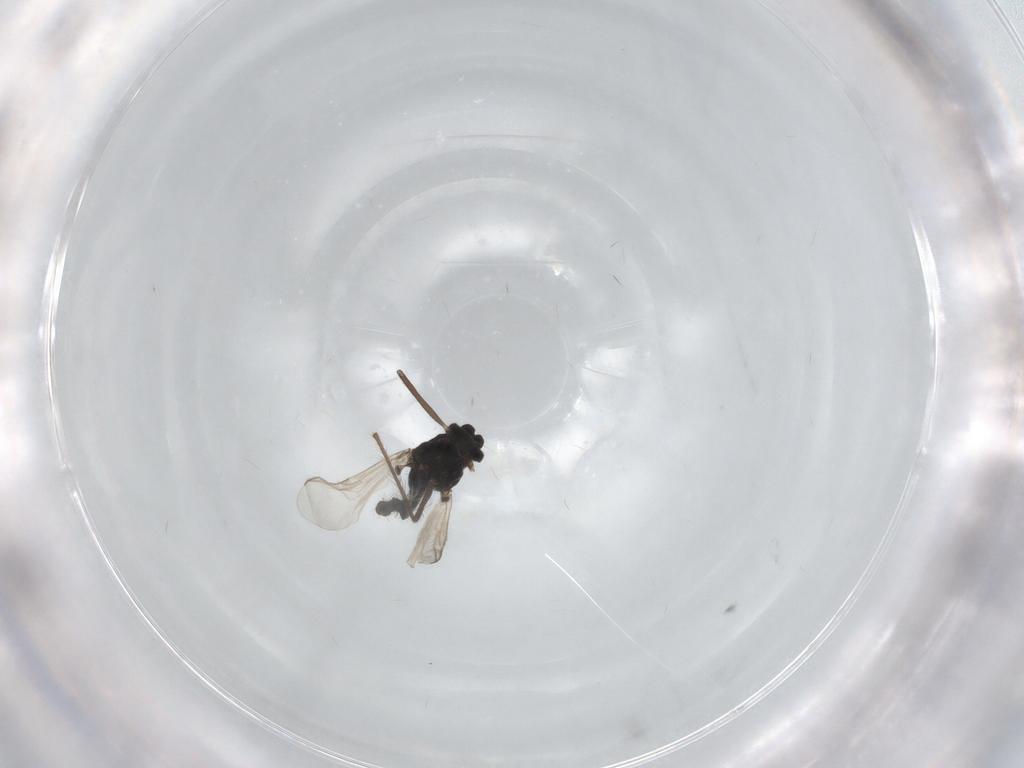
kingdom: Animalia
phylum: Arthropoda
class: Insecta
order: Diptera
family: Chironomidae
